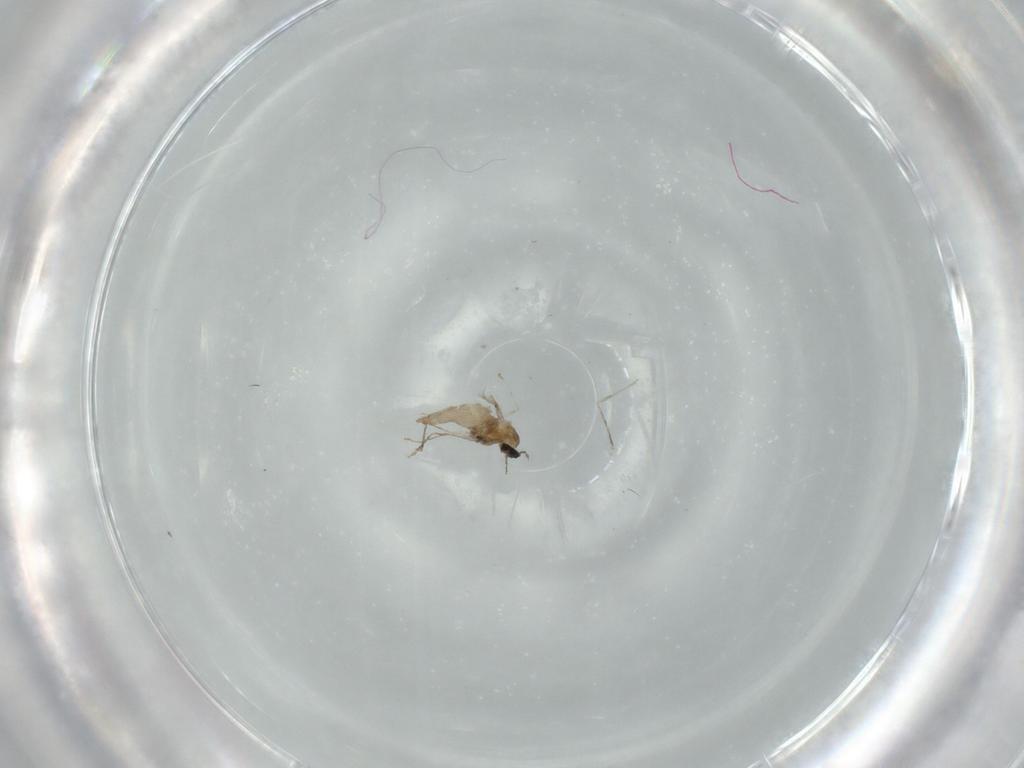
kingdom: Animalia
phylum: Arthropoda
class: Insecta
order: Diptera
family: Cecidomyiidae
